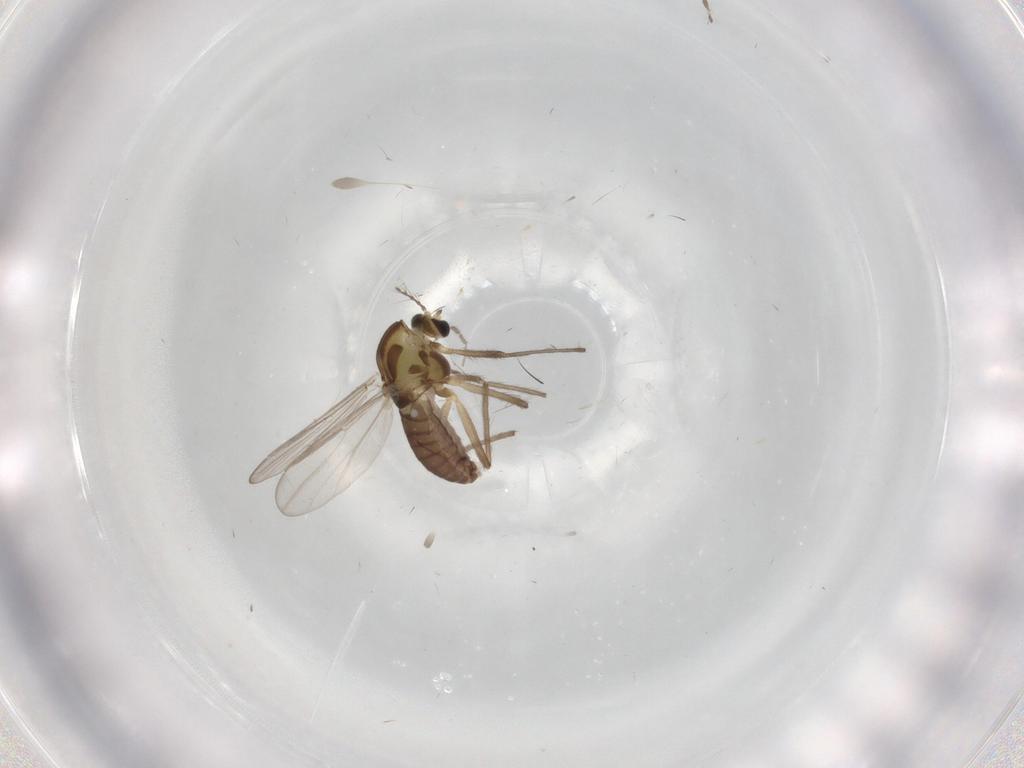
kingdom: Animalia
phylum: Arthropoda
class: Insecta
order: Diptera
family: Chironomidae
